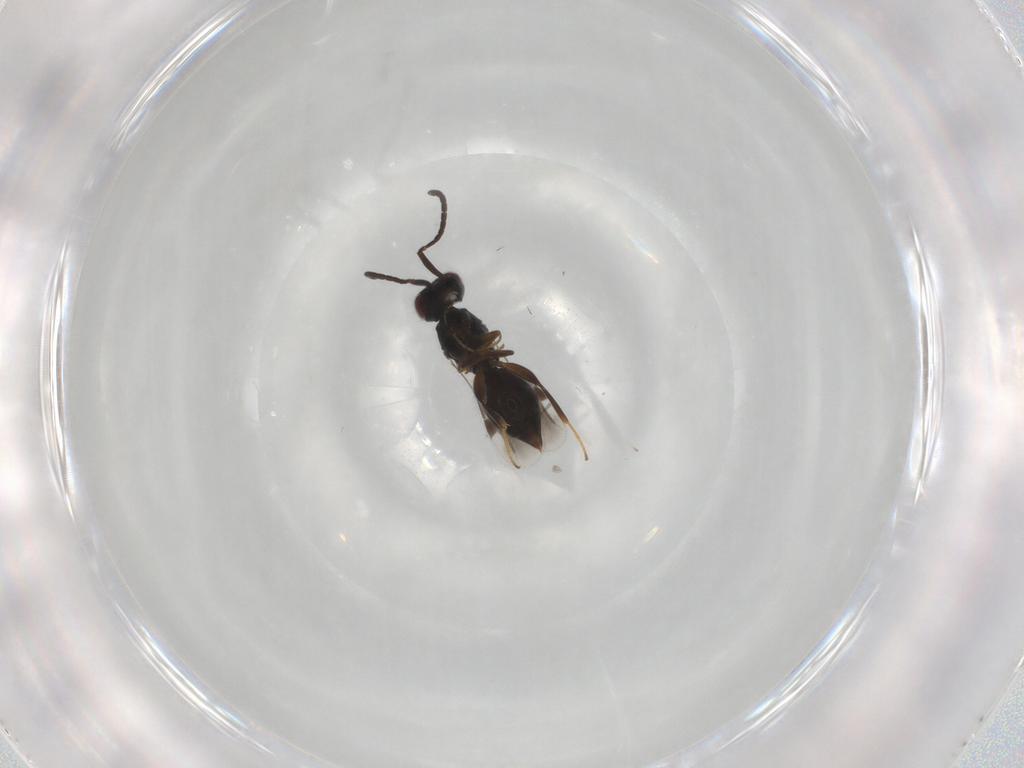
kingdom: Animalia
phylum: Arthropoda
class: Insecta
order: Hymenoptera
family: Megaspilidae
